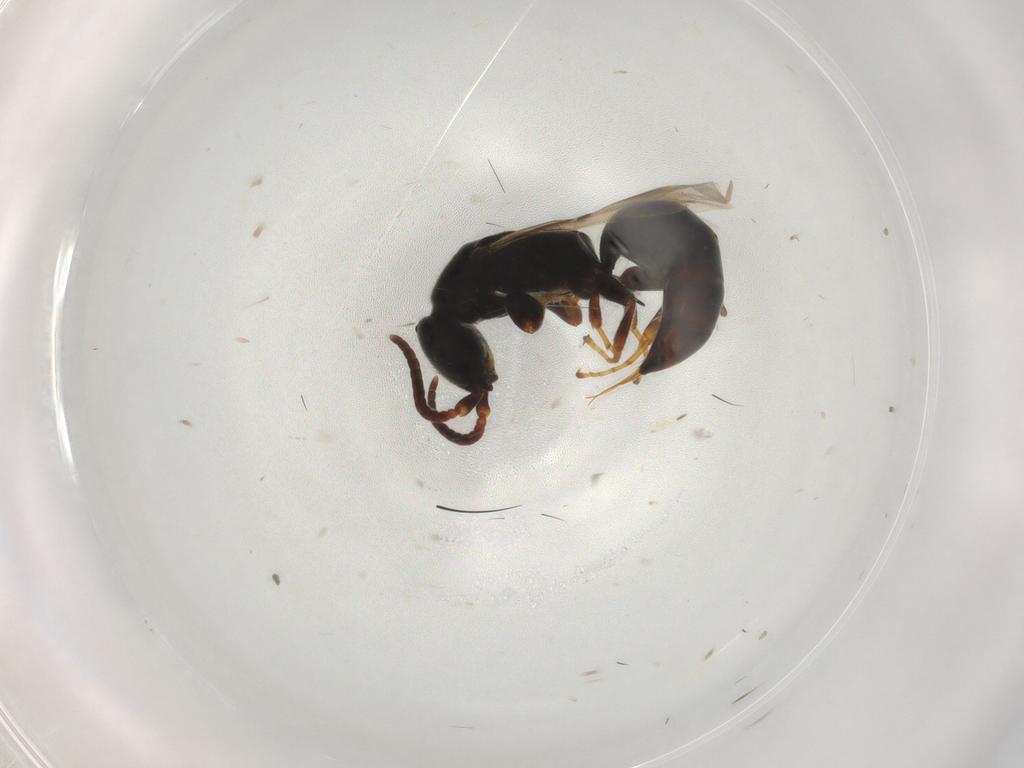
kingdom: Animalia
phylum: Arthropoda
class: Insecta
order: Hymenoptera
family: Bethylidae
